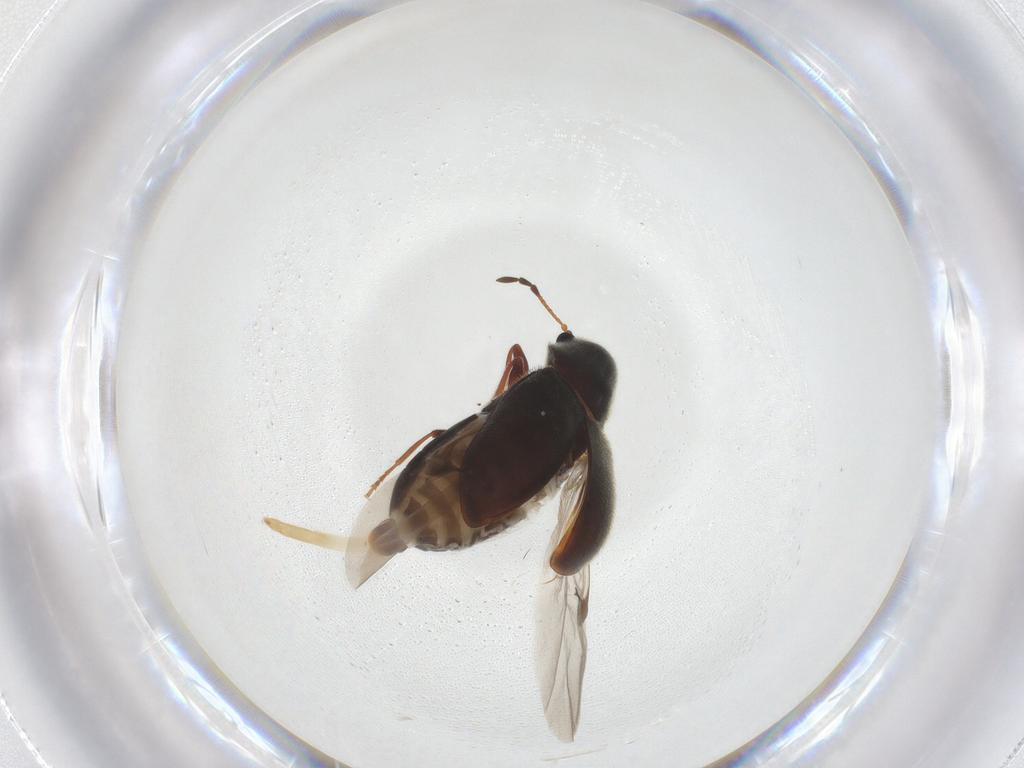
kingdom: Animalia
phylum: Arthropoda
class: Insecta
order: Coleoptera
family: Ptinidae
